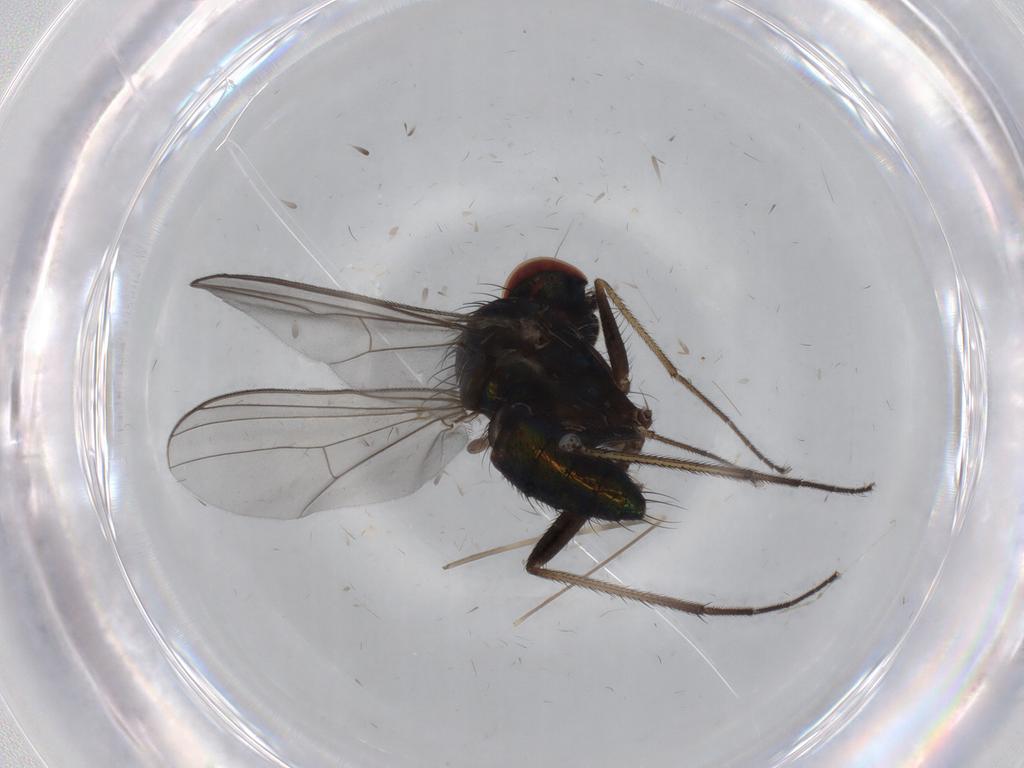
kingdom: Animalia
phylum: Arthropoda
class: Insecta
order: Diptera
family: Dolichopodidae
